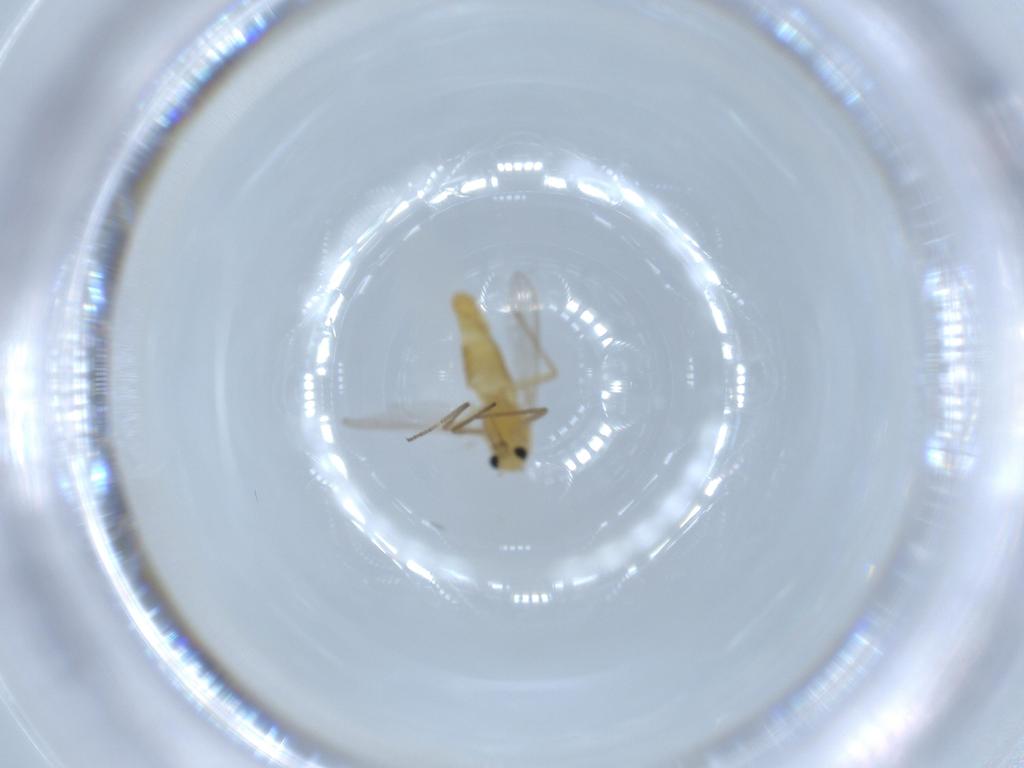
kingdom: Animalia
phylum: Arthropoda
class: Insecta
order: Diptera
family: Chironomidae
